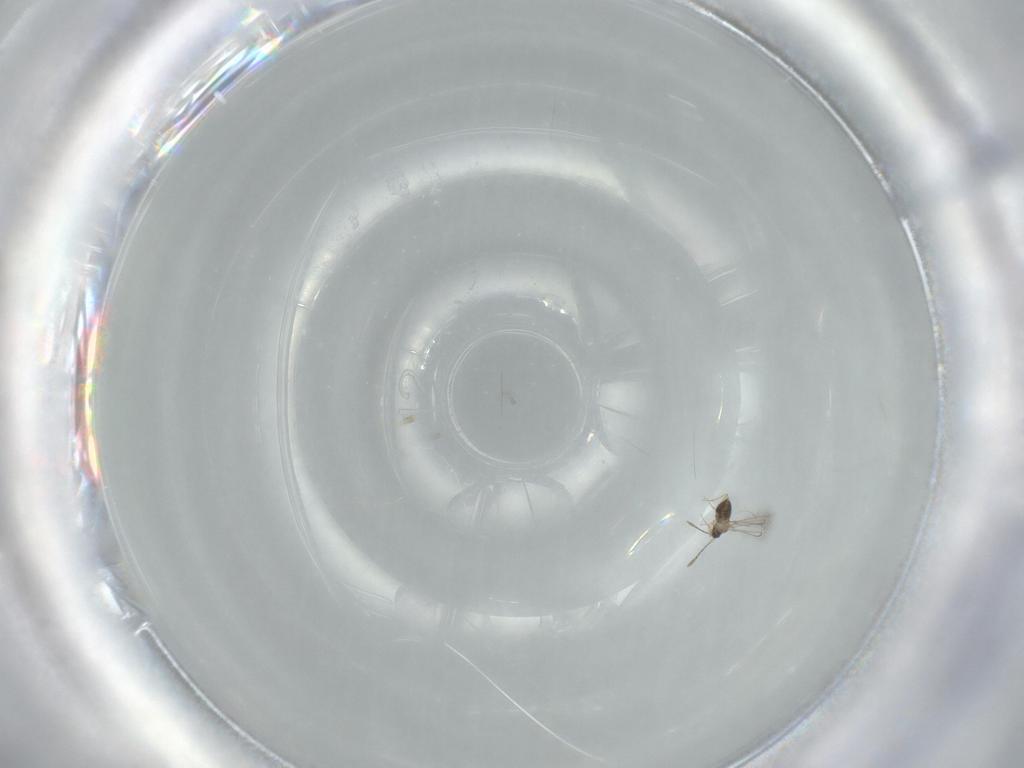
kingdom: Animalia
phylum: Arthropoda
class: Insecta
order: Hymenoptera
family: Mymaridae
